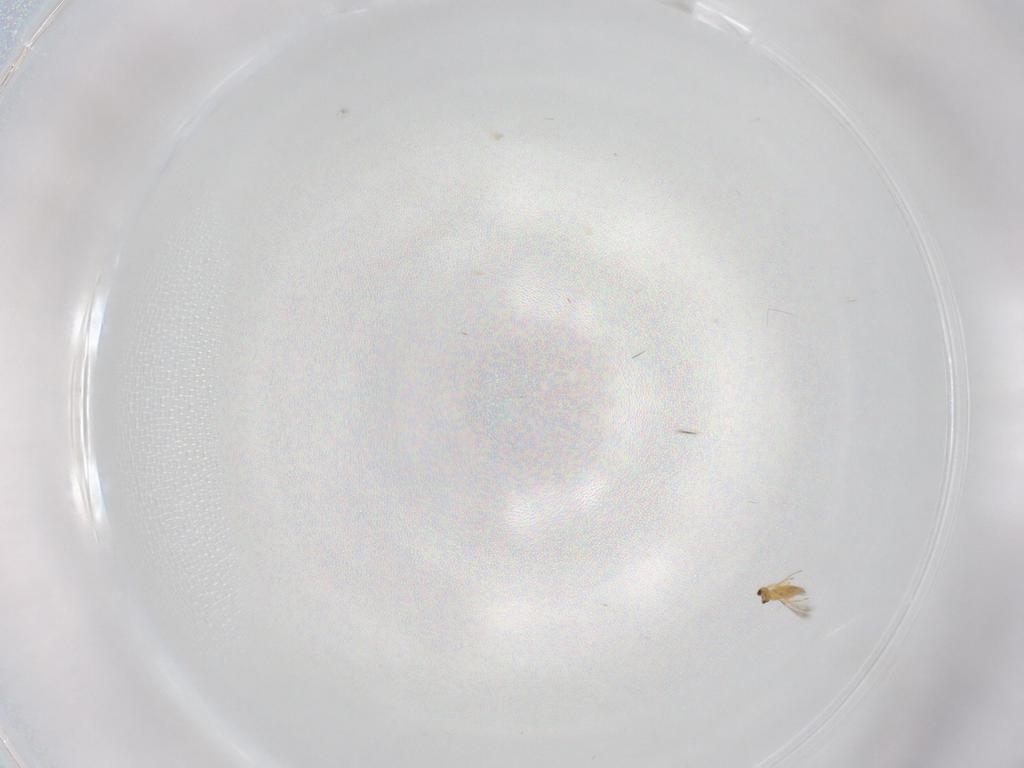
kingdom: Animalia
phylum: Arthropoda
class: Insecta
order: Hymenoptera
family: Mymaridae
